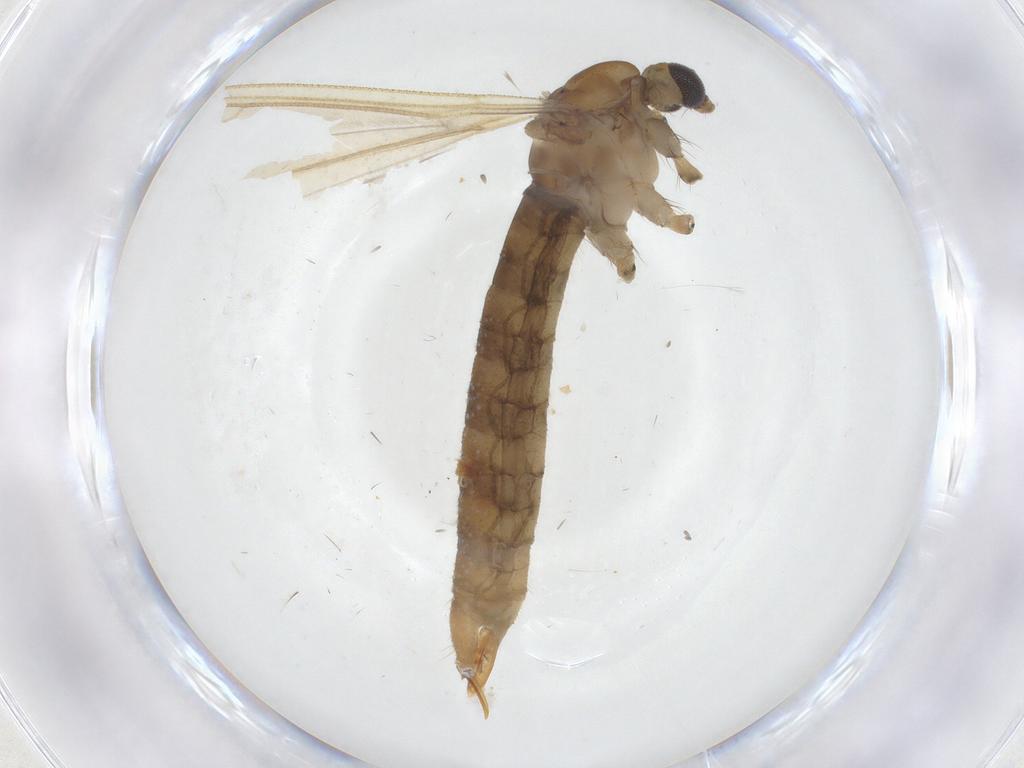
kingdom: Animalia
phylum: Arthropoda
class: Insecta
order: Diptera
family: Limoniidae
